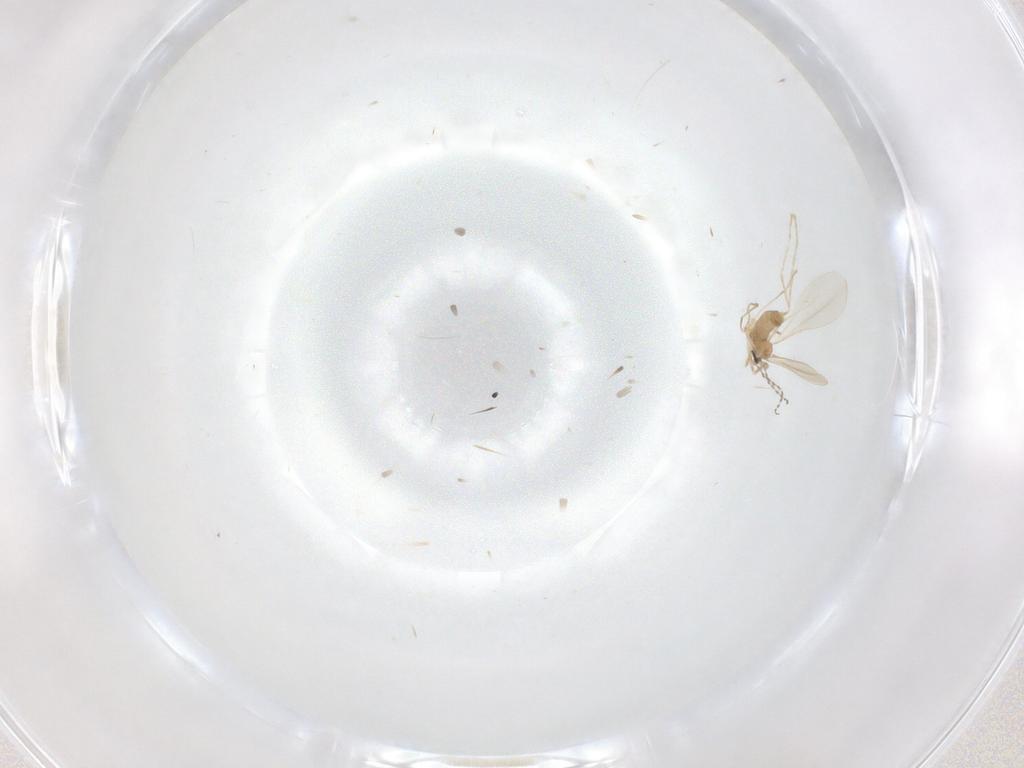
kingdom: Animalia
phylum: Arthropoda
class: Insecta
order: Diptera
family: Cecidomyiidae
